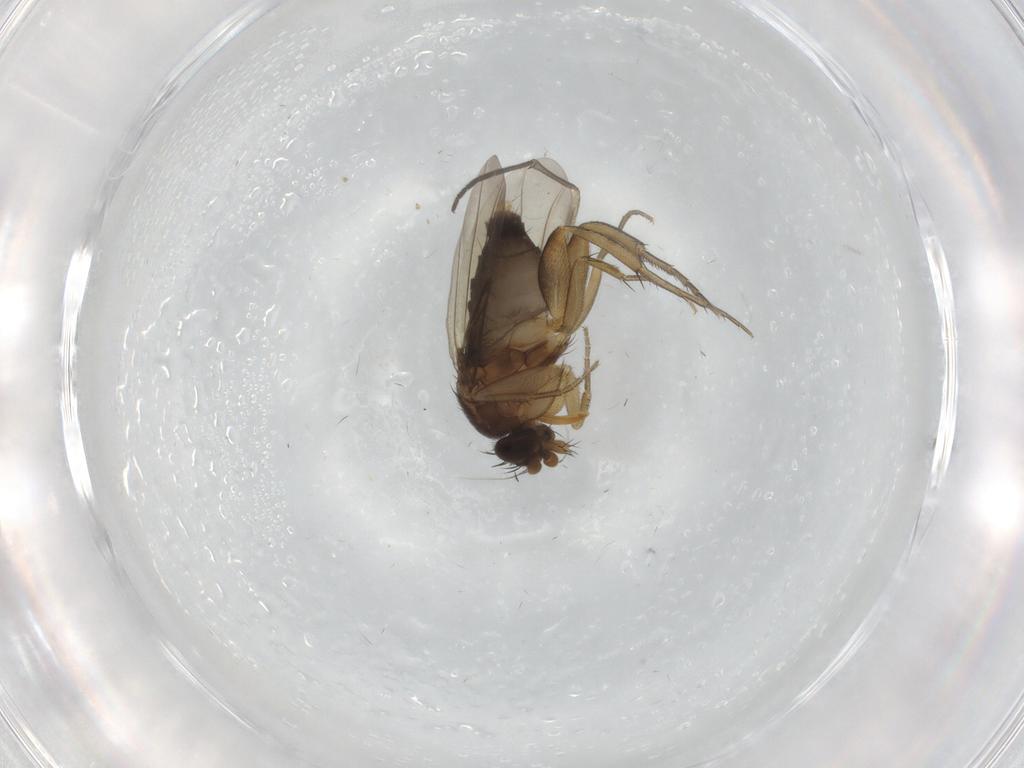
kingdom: Animalia
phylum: Arthropoda
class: Insecta
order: Diptera
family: Phoridae
